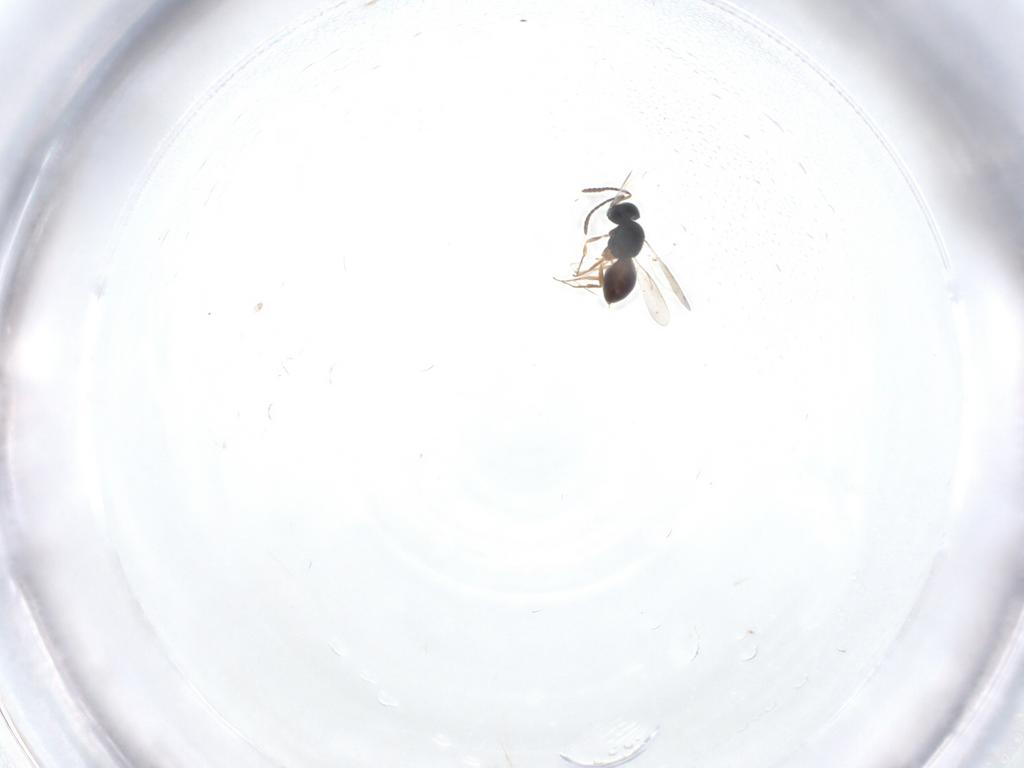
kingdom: Animalia
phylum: Arthropoda
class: Insecta
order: Hymenoptera
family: Scelionidae
